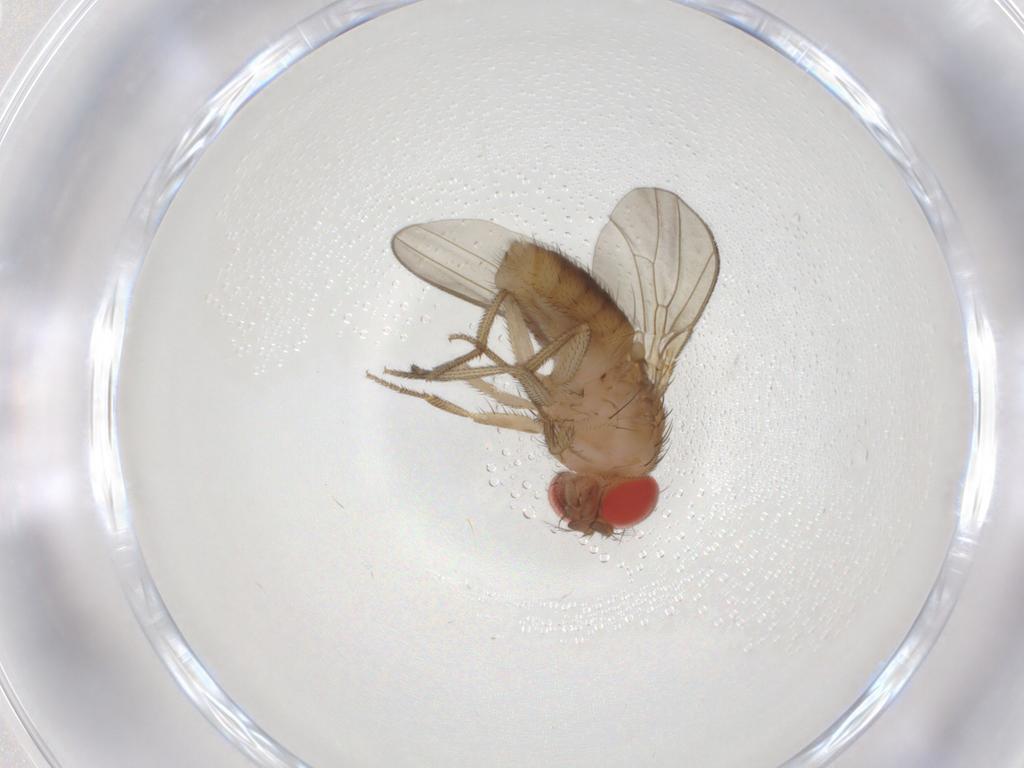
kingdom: Animalia
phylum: Arthropoda
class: Insecta
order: Diptera
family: Drosophilidae
